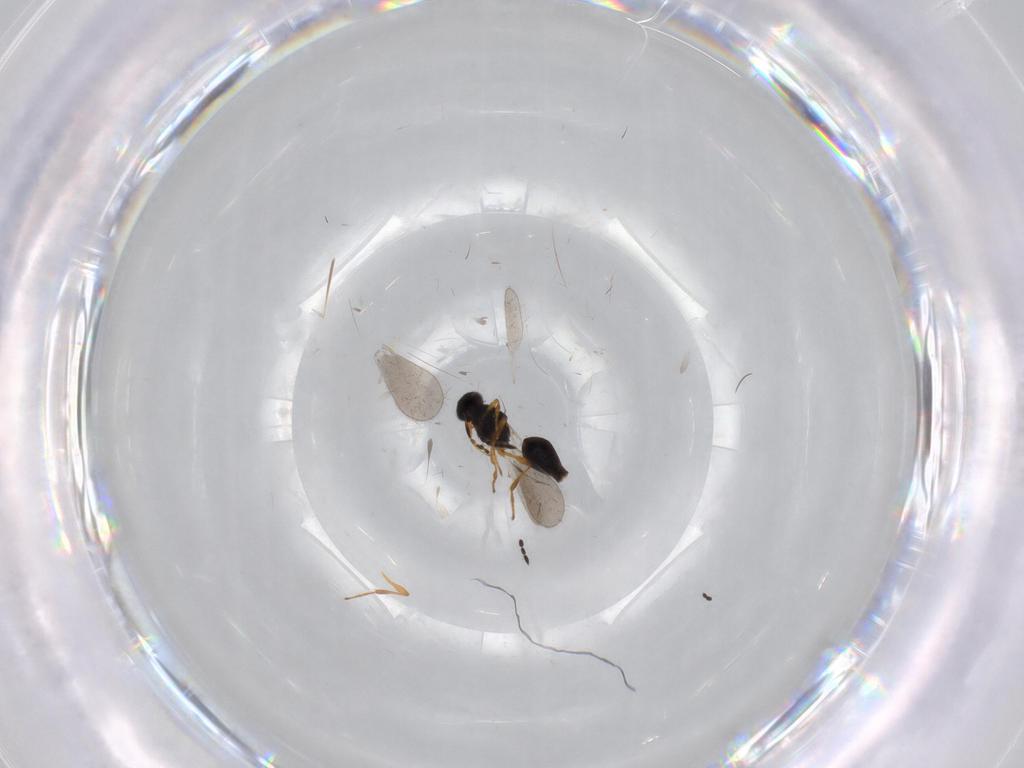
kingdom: Animalia
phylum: Arthropoda
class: Insecta
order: Hymenoptera
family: Platygastridae
